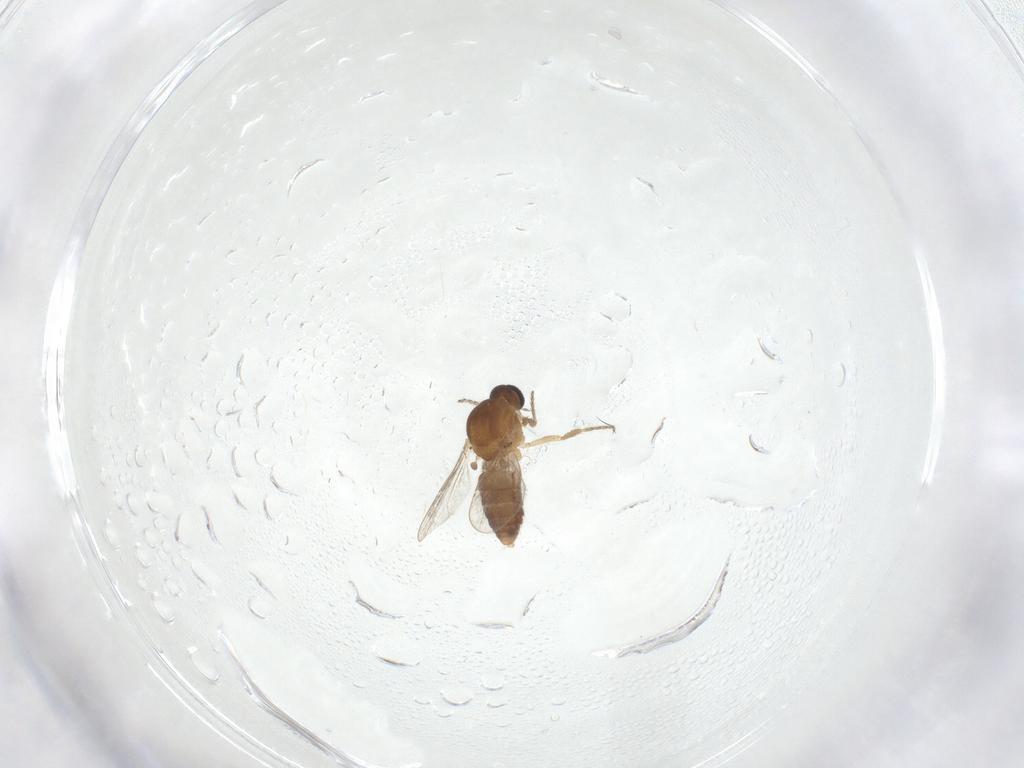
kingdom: Animalia
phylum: Arthropoda
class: Insecta
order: Diptera
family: Ceratopogonidae
